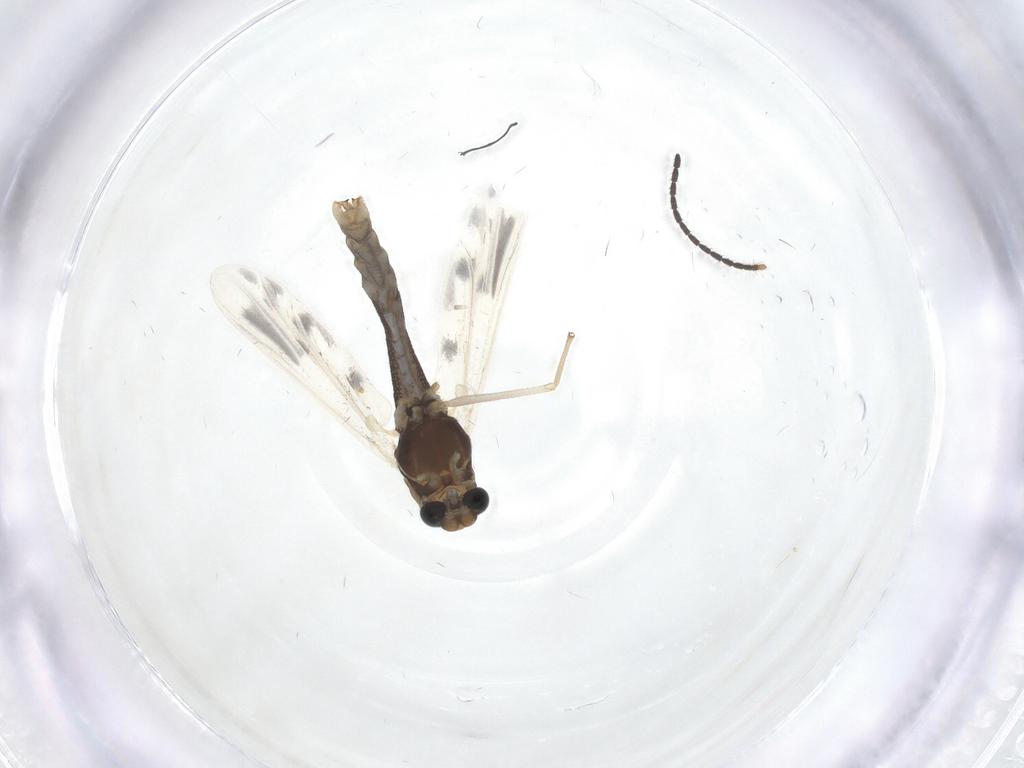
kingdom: Animalia
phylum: Arthropoda
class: Insecta
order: Diptera
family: Chironomidae
